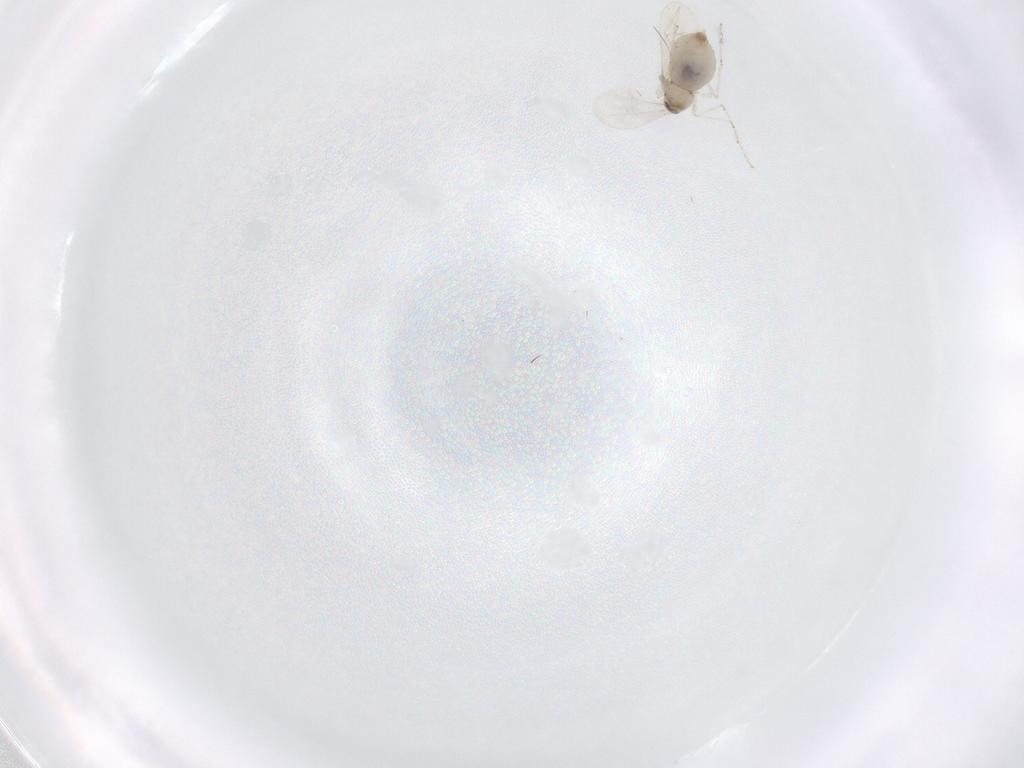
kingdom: Animalia
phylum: Arthropoda
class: Insecta
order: Diptera
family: Cecidomyiidae
